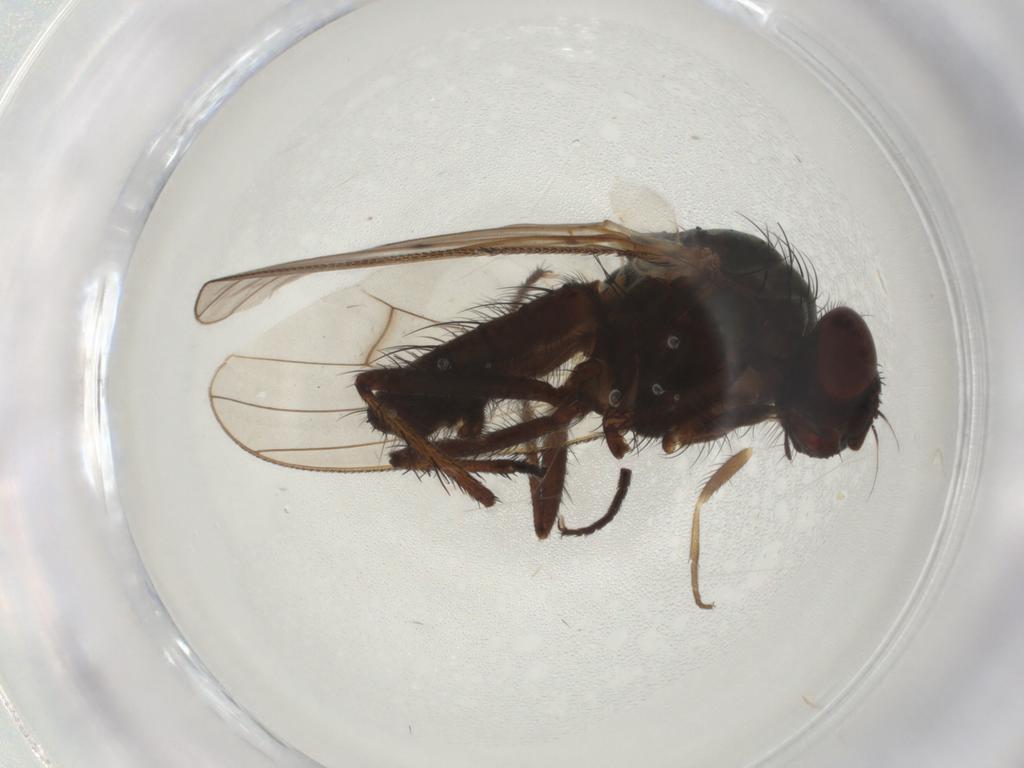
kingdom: Animalia
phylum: Arthropoda
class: Insecta
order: Diptera
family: Anthomyiidae
